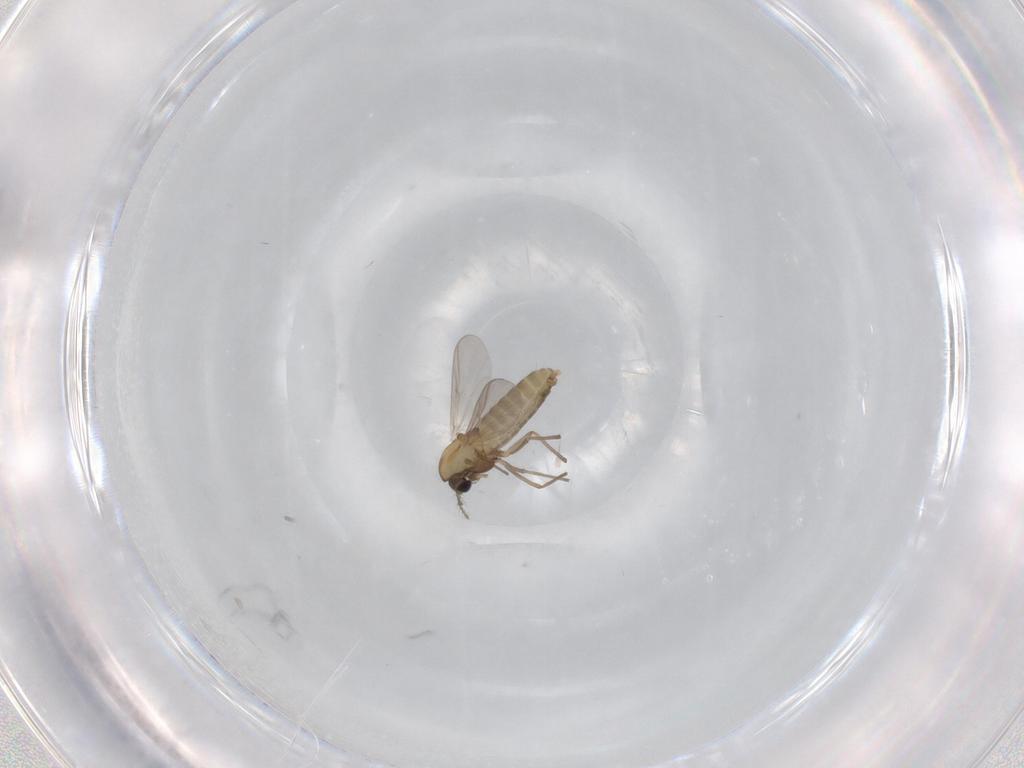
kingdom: Animalia
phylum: Arthropoda
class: Insecta
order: Diptera
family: Chironomidae
